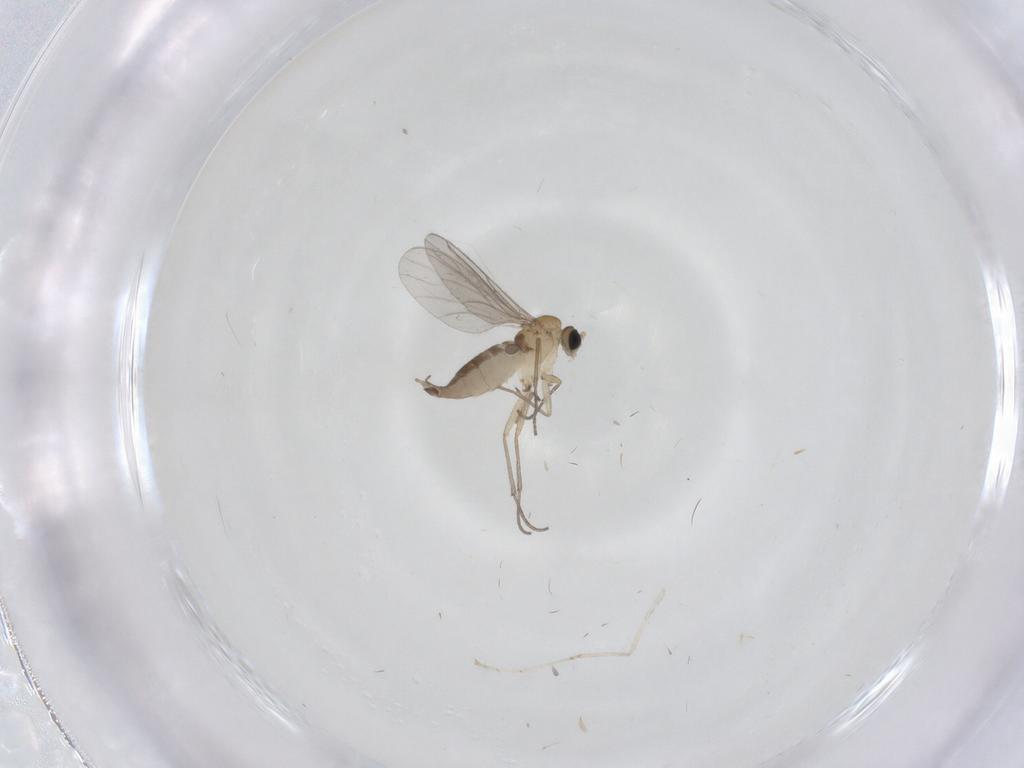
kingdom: Animalia
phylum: Arthropoda
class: Insecta
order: Diptera
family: Sciaridae
